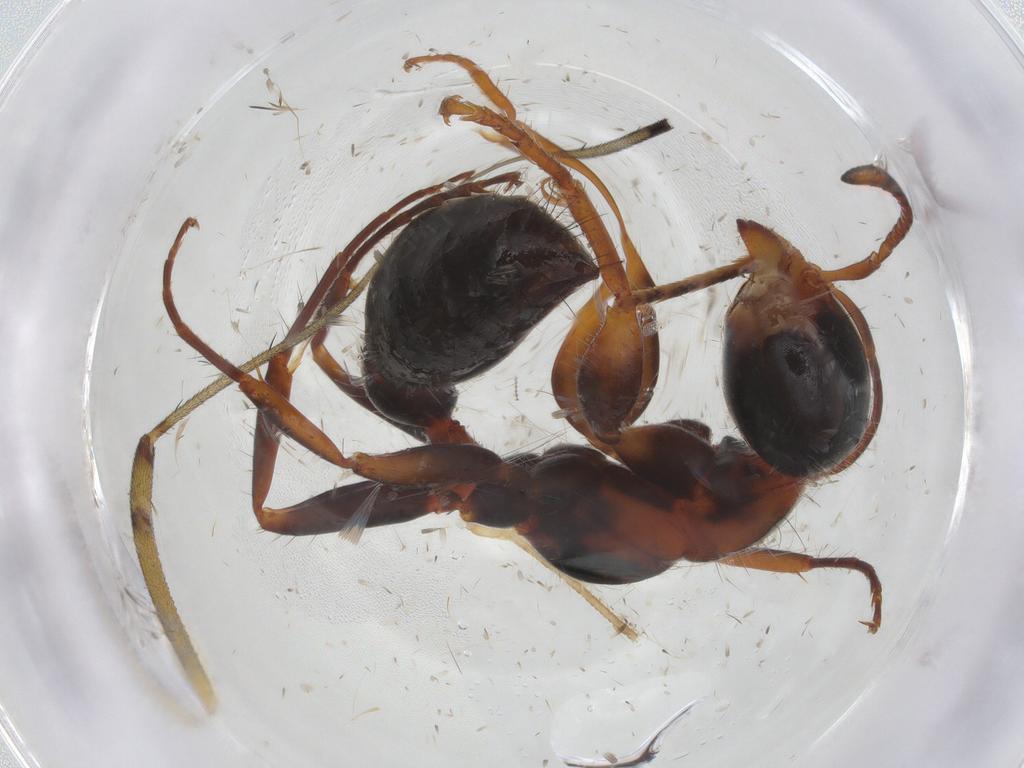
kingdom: Animalia
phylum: Arthropoda
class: Insecta
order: Hymenoptera
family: Formicidae
